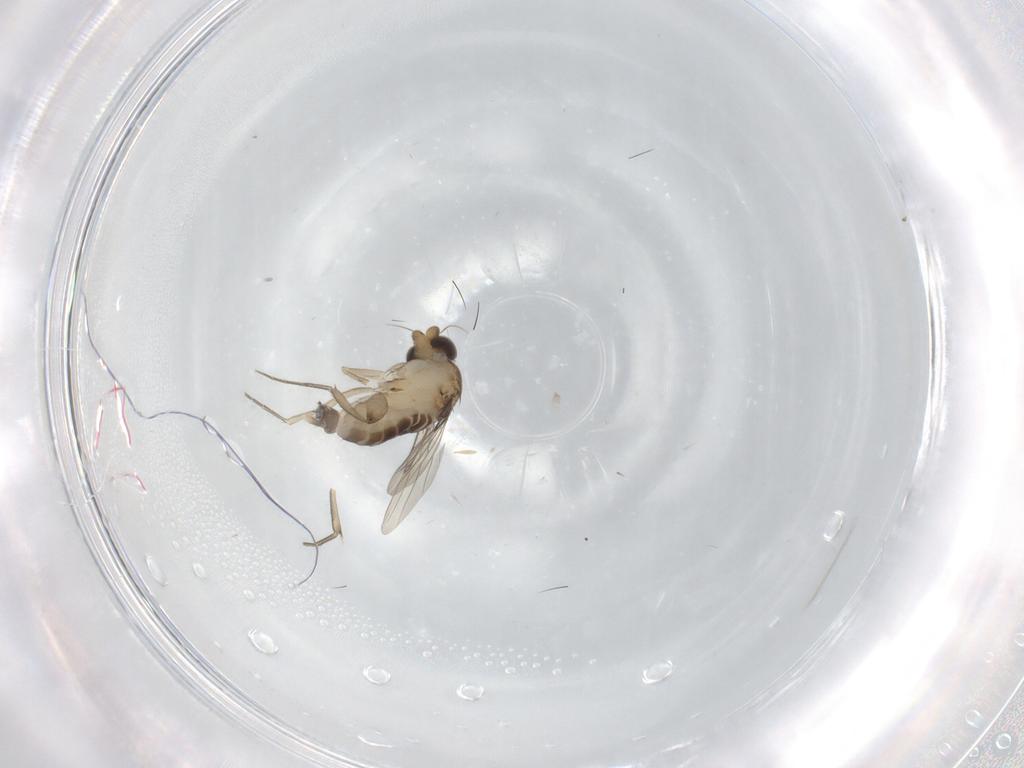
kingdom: Animalia
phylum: Arthropoda
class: Insecta
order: Diptera
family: Phoridae
